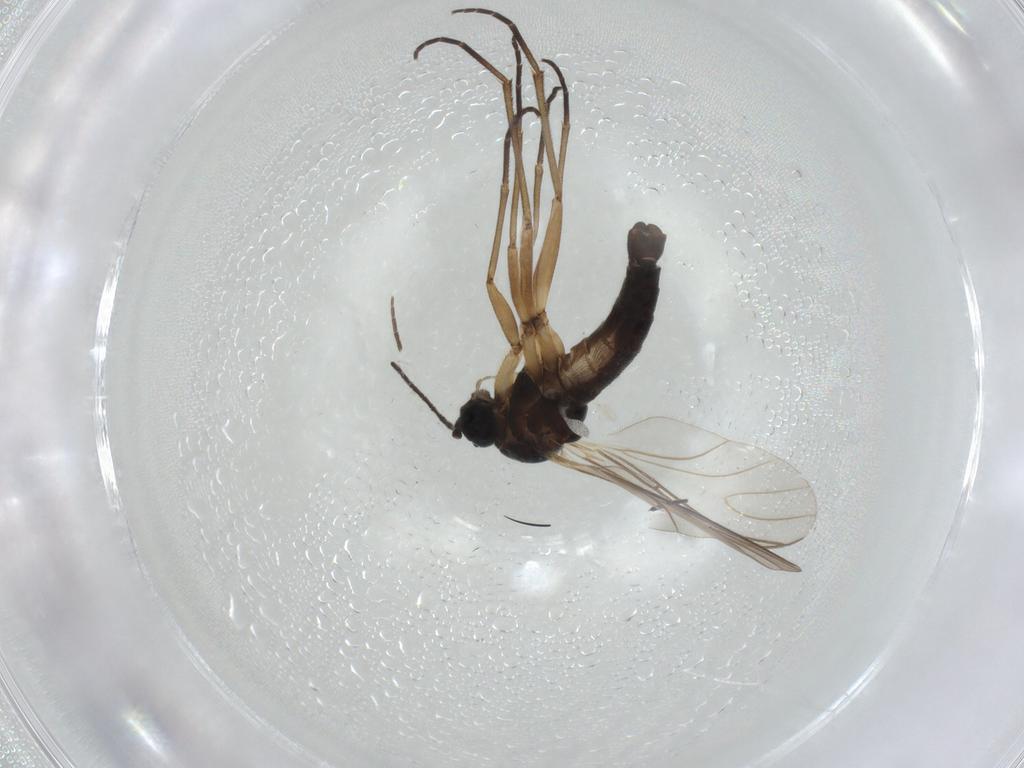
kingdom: Animalia
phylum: Arthropoda
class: Insecta
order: Diptera
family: Sciaridae
